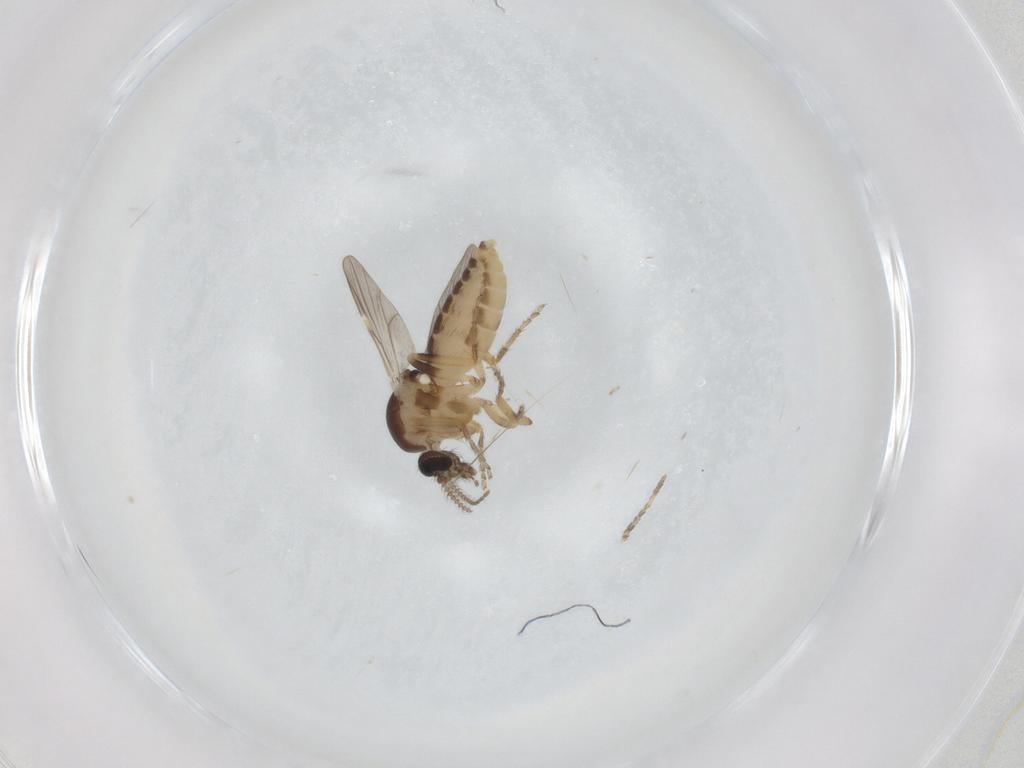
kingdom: Animalia
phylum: Arthropoda
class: Insecta
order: Diptera
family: Ceratopogonidae
